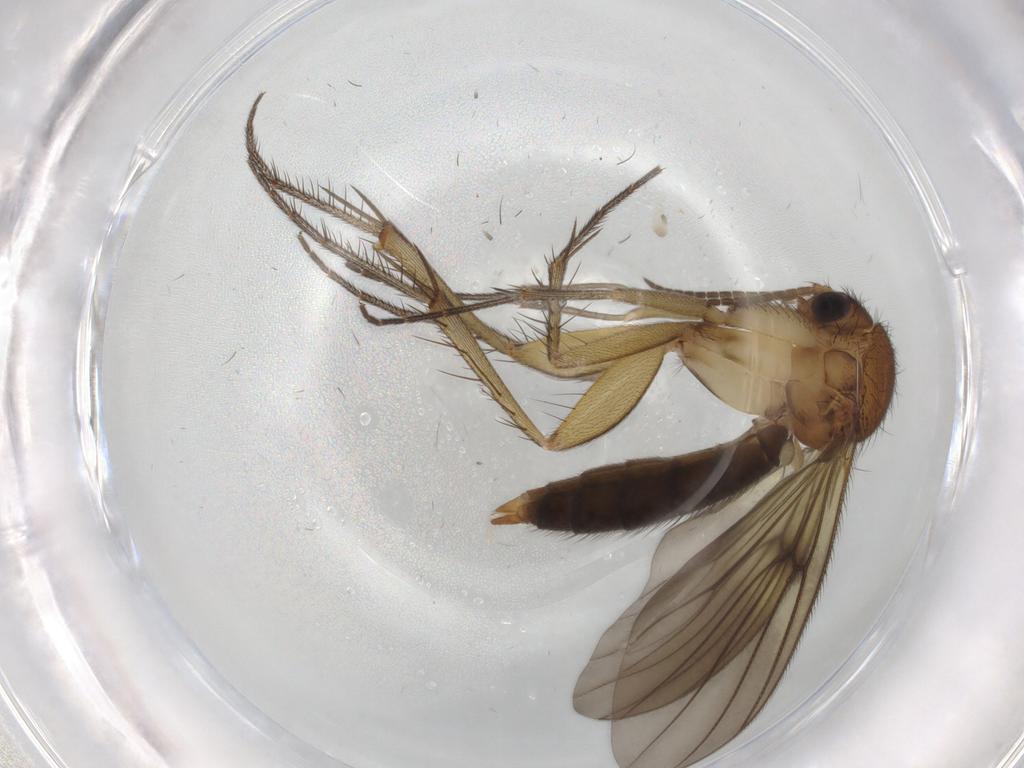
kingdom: Animalia
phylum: Arthropoda
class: Insecta
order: Diptera
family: Mycetophilidae
